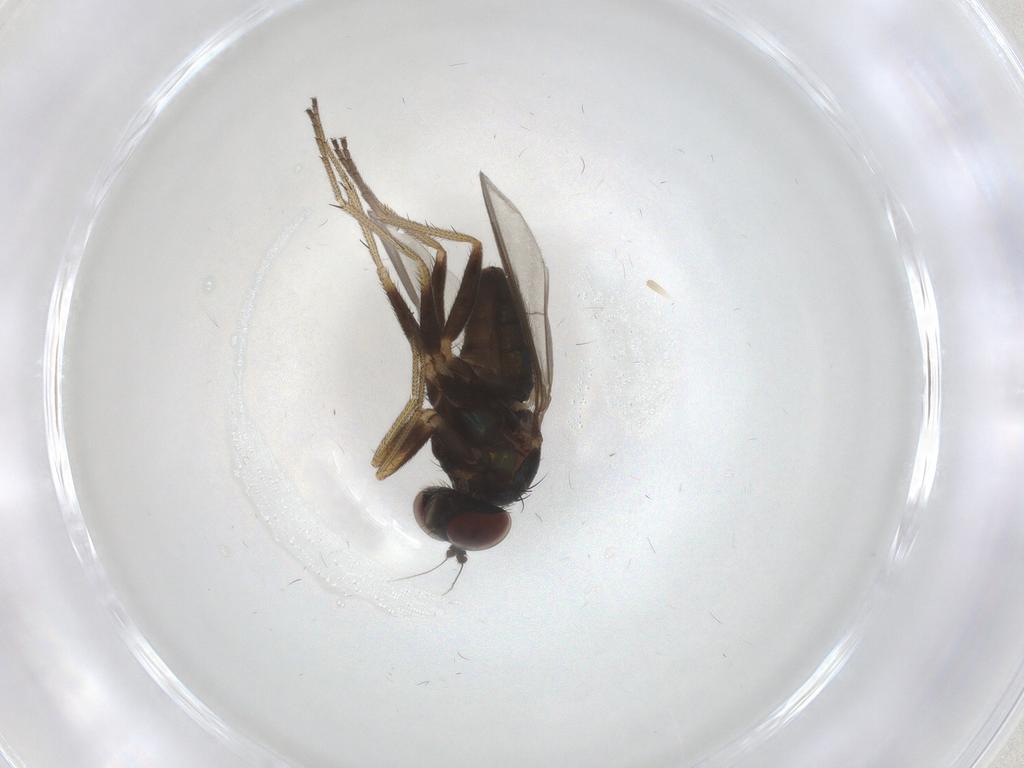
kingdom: Animalia
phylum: Arthropoda
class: Insecta
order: Diptera
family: Dolichopodidae
